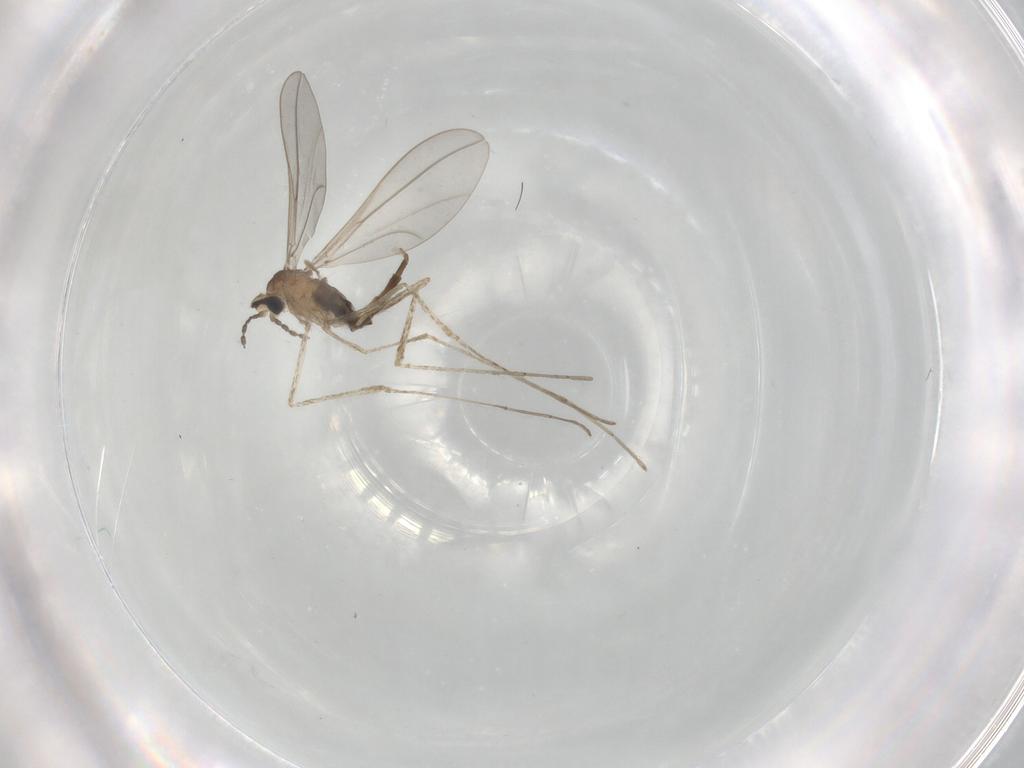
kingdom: Animalia
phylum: Arthropoda
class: Insecta
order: Diptera
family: Cecidomyiidae
